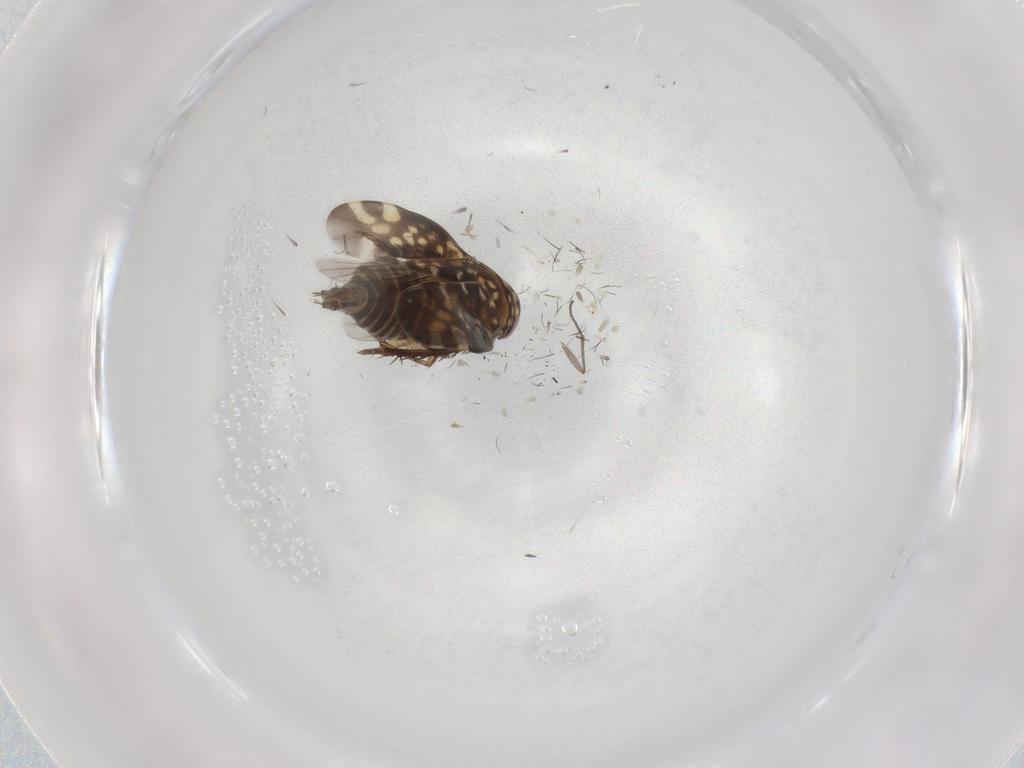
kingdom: Animalia
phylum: Arthropoda
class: Insecta
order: Hemiptera
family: Cicadellidae
